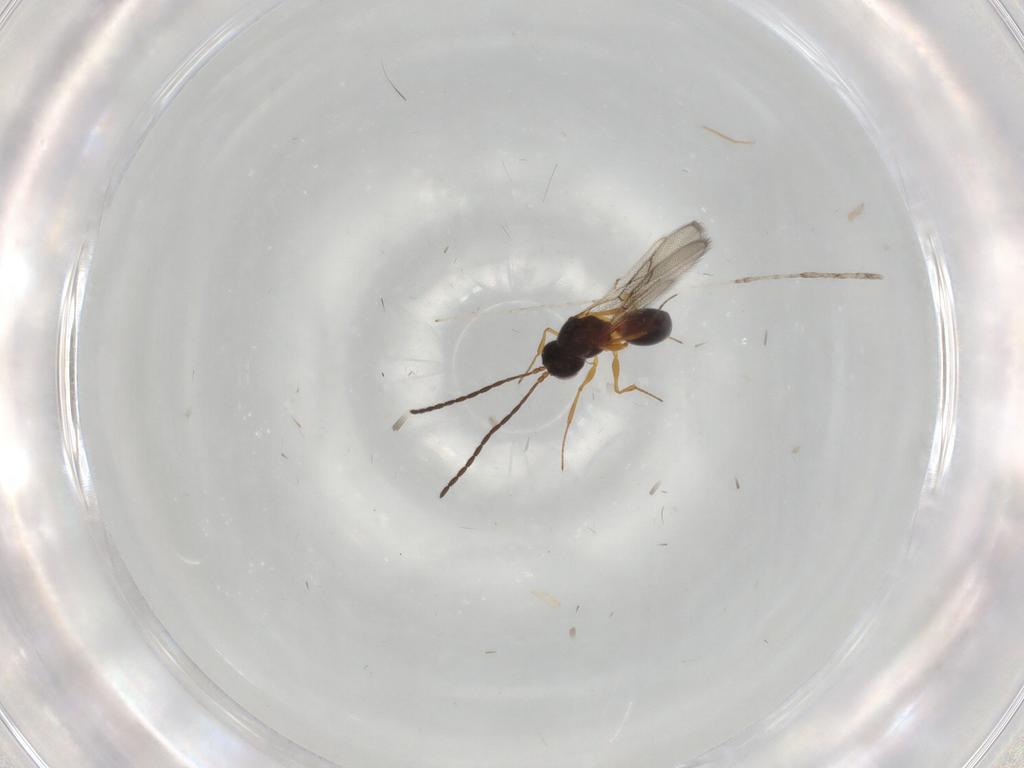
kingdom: Animalia
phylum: Arthropoda
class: Insecta
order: Hymenoptera
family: Figitidae
